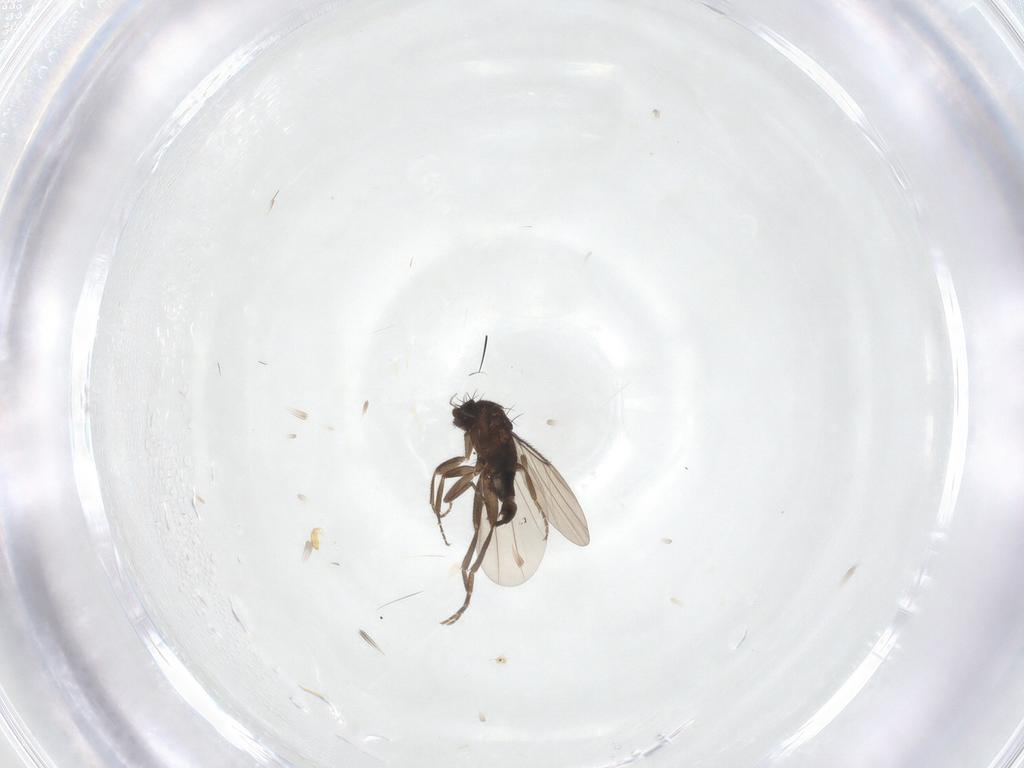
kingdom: Animalia
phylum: Arthropoda
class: Insecta
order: Diptera
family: Phoridae
